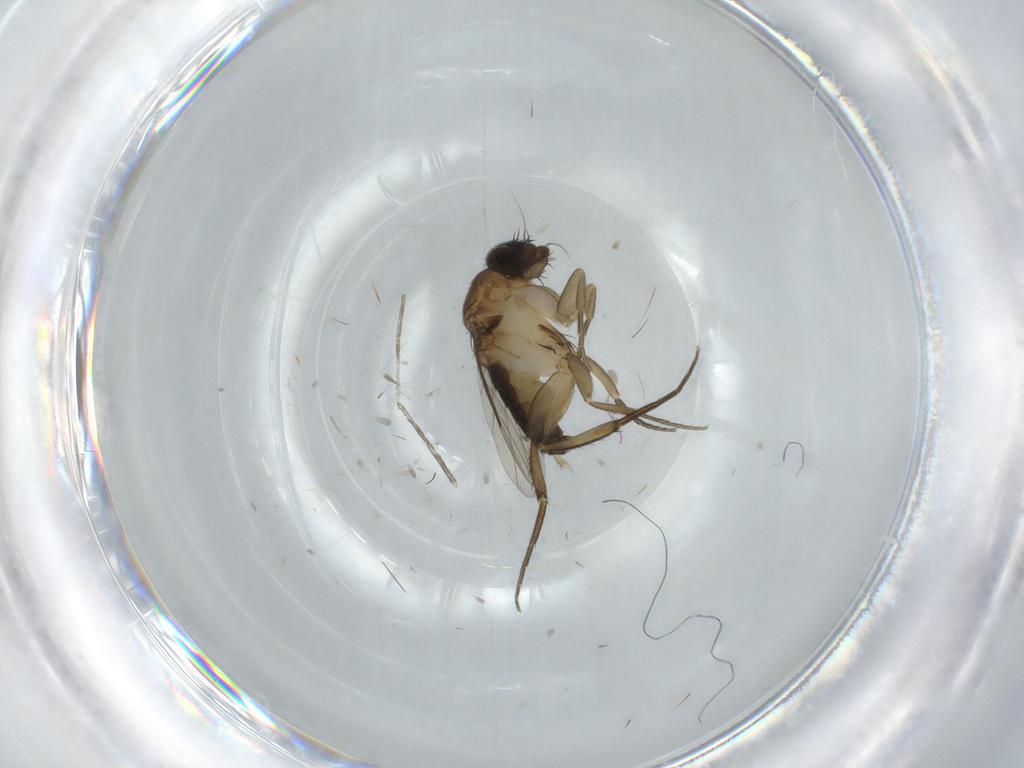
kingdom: Animalia
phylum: Arthropoda
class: Insecta
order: Diptera
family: Phoridae
